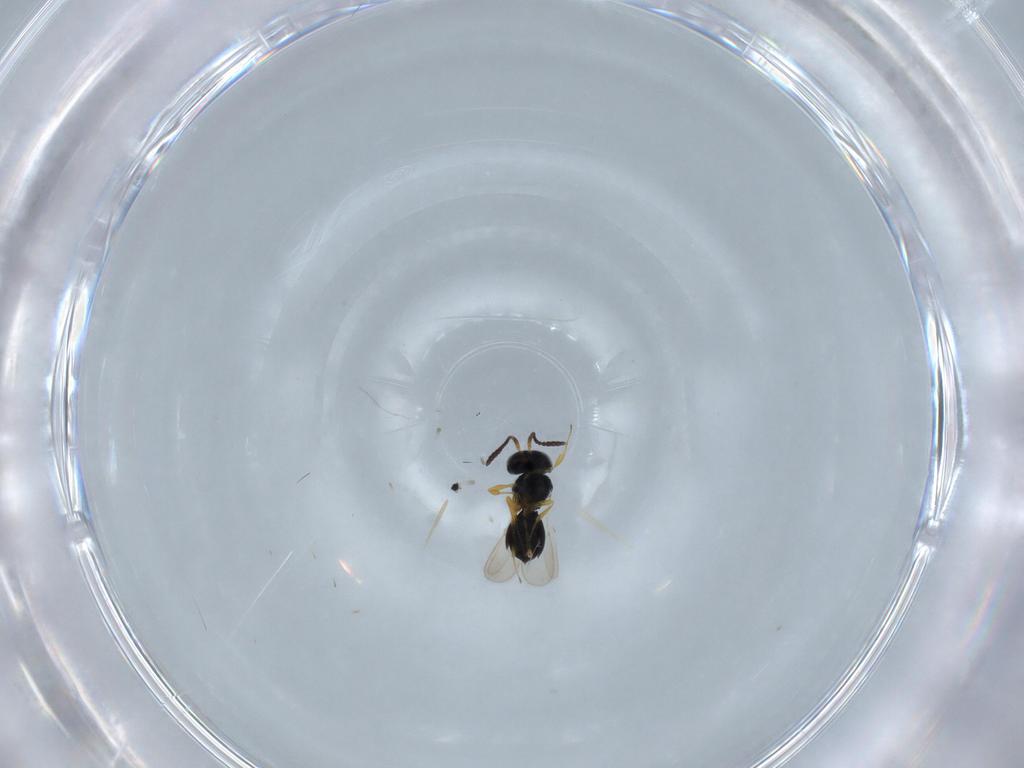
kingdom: Animalia
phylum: Arthropoda
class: Insecta
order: Hymenoptera
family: Scelionidae
